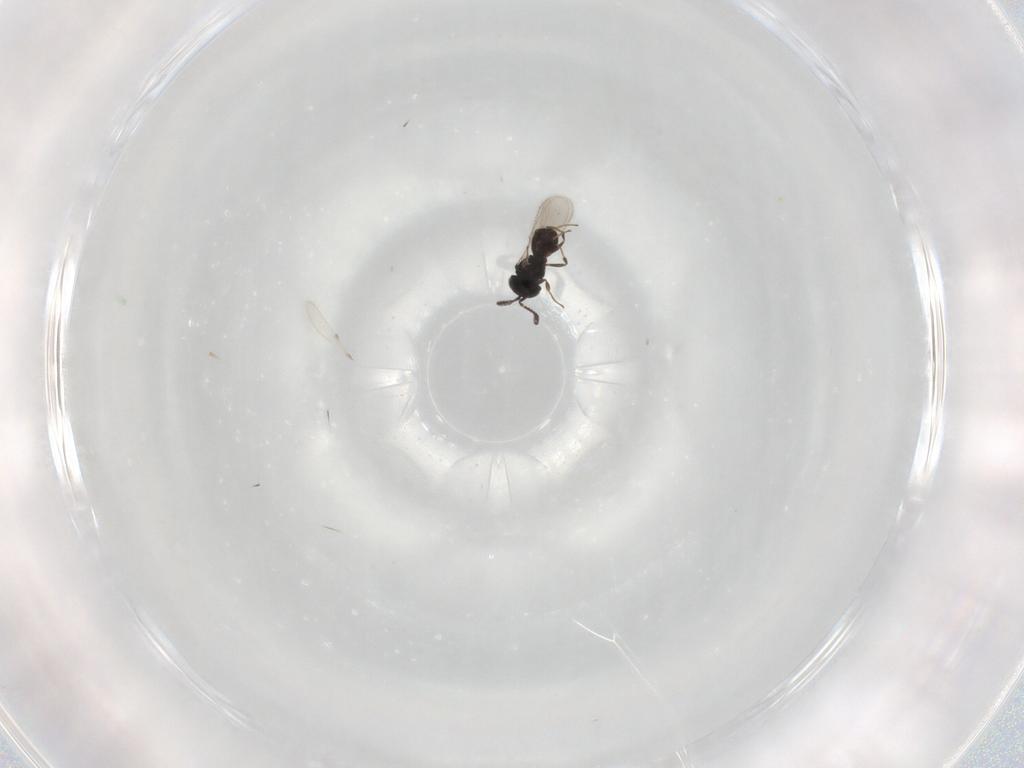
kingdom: Animalia
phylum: Arthropoda
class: Insecta
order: Hymenoptera
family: Scelionidae
